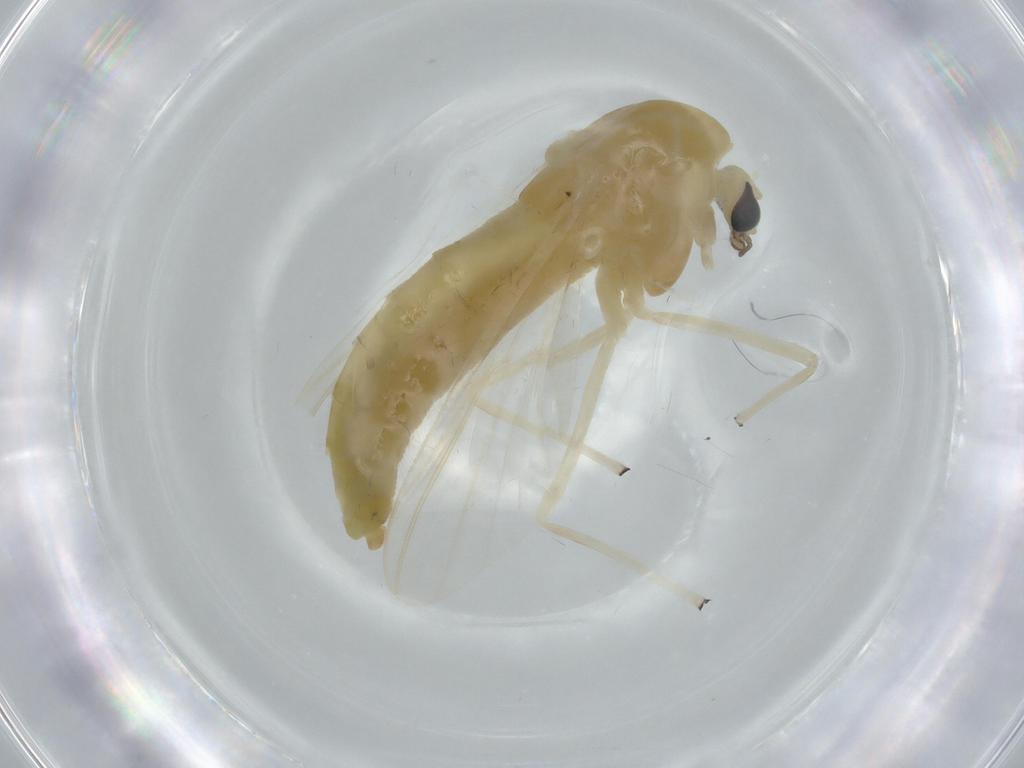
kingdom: Animalia
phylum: Arthropoda
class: Insecta
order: Diptera
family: Chironomidae
